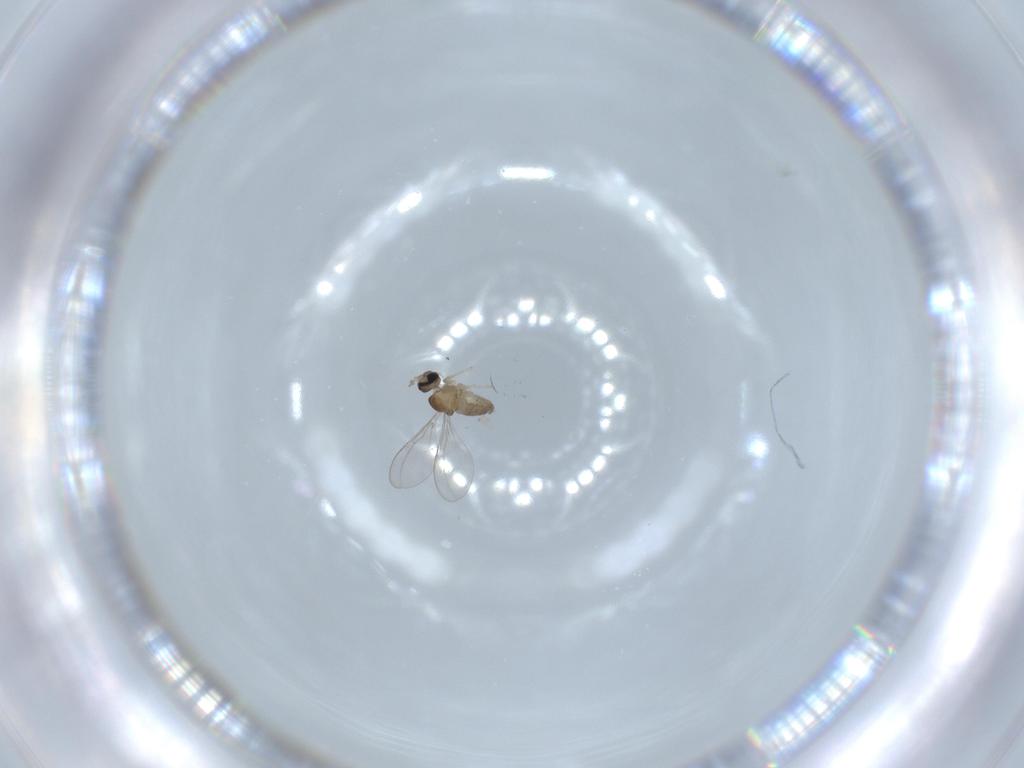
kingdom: Animalia
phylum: Arthropoda
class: Insecta
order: Diptera
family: Cecidomyiidae
